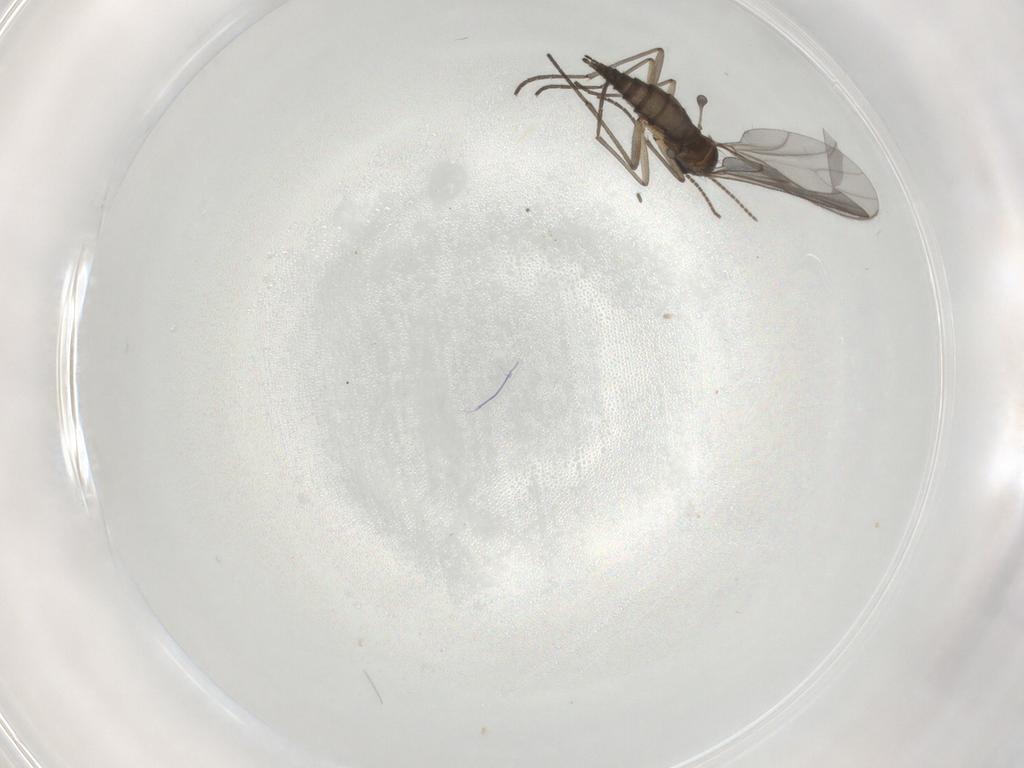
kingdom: Animalia
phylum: Arthropoda
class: Insecta
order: Diptera
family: Sciaridae
